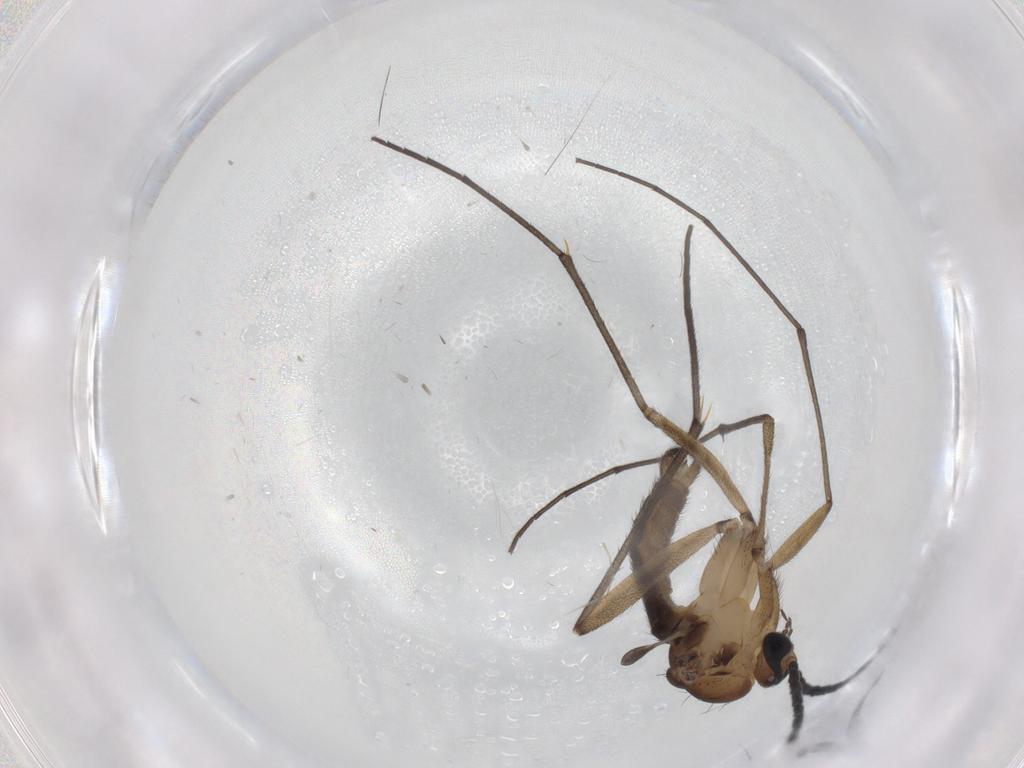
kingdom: Animalia
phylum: Arthropoda
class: Insecta
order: Diptera
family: Sciaridae
